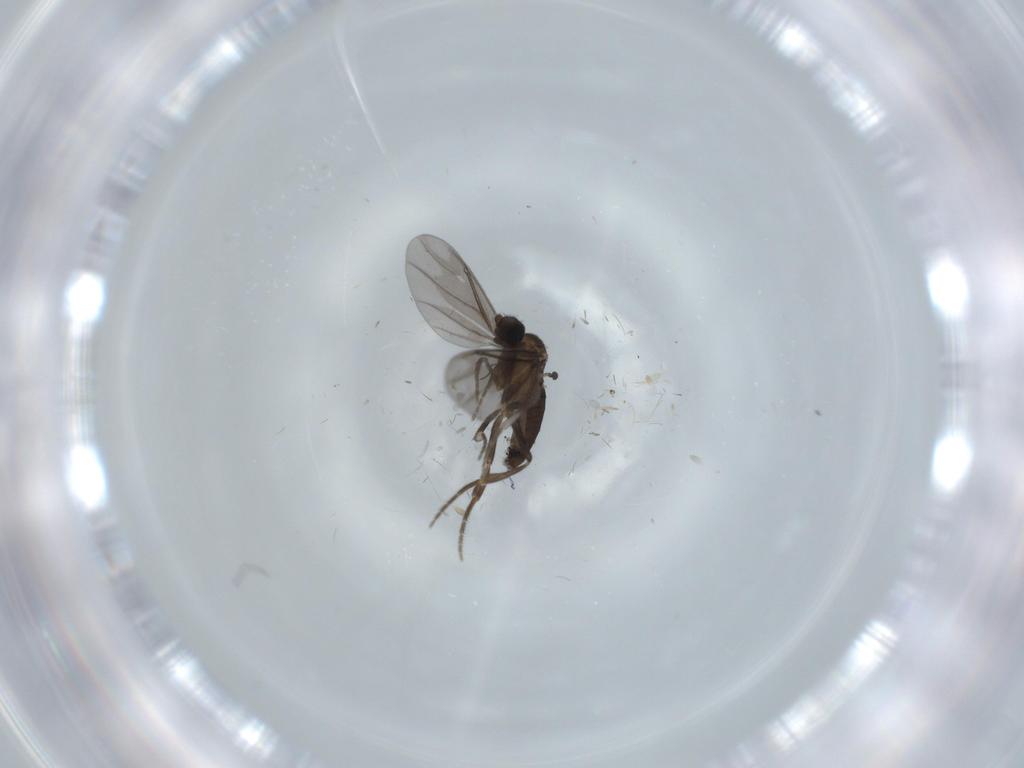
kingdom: Animalia
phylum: Arthropoda
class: Insecta
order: Diptera
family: Phoridae
